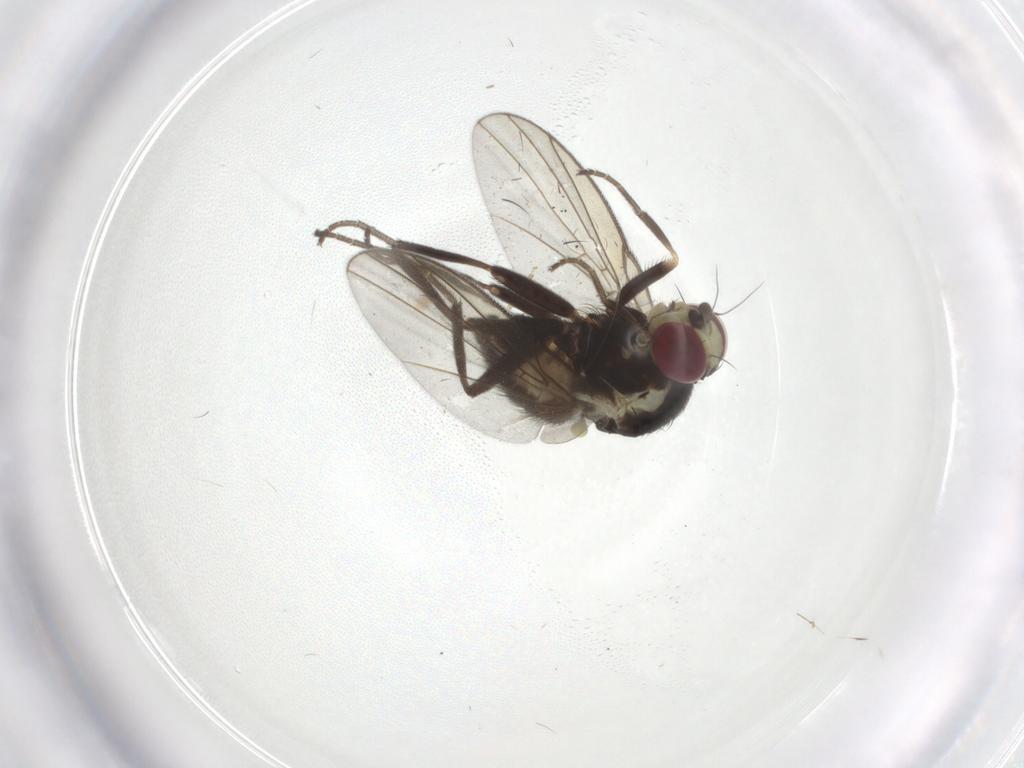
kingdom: Animalia
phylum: Arthropoda
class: Insecta
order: Diptera
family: Agromyzidae
